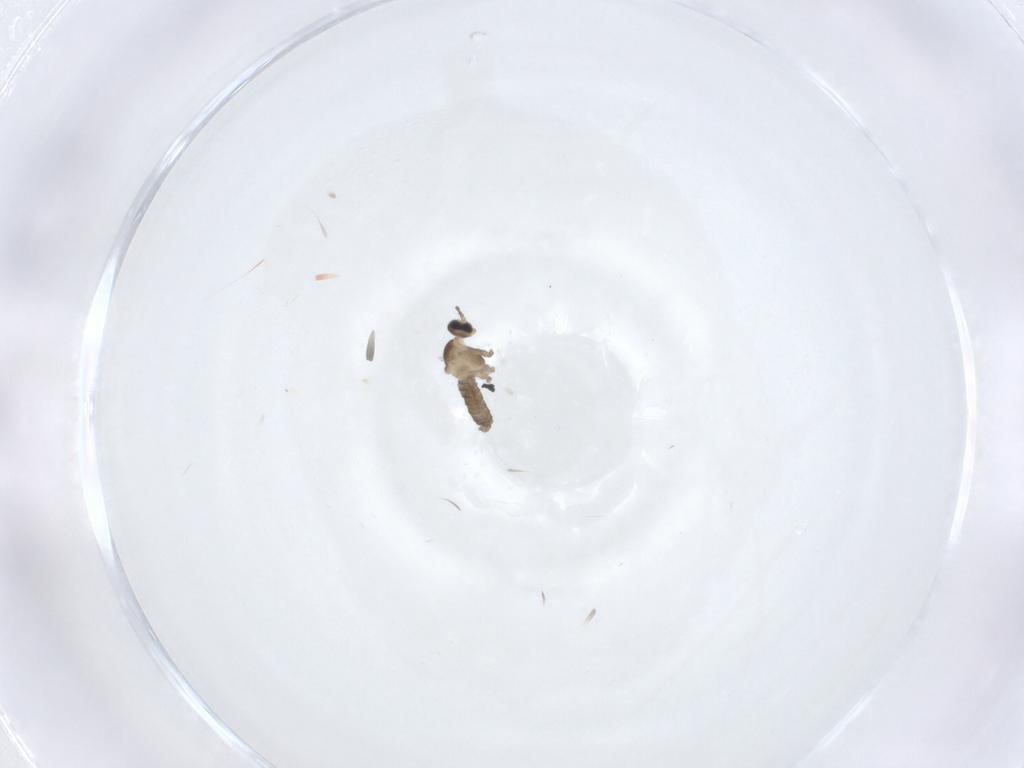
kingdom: Animalia
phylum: Arthropoda
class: Insecta
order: Diptera
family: Cecidomyiidae
